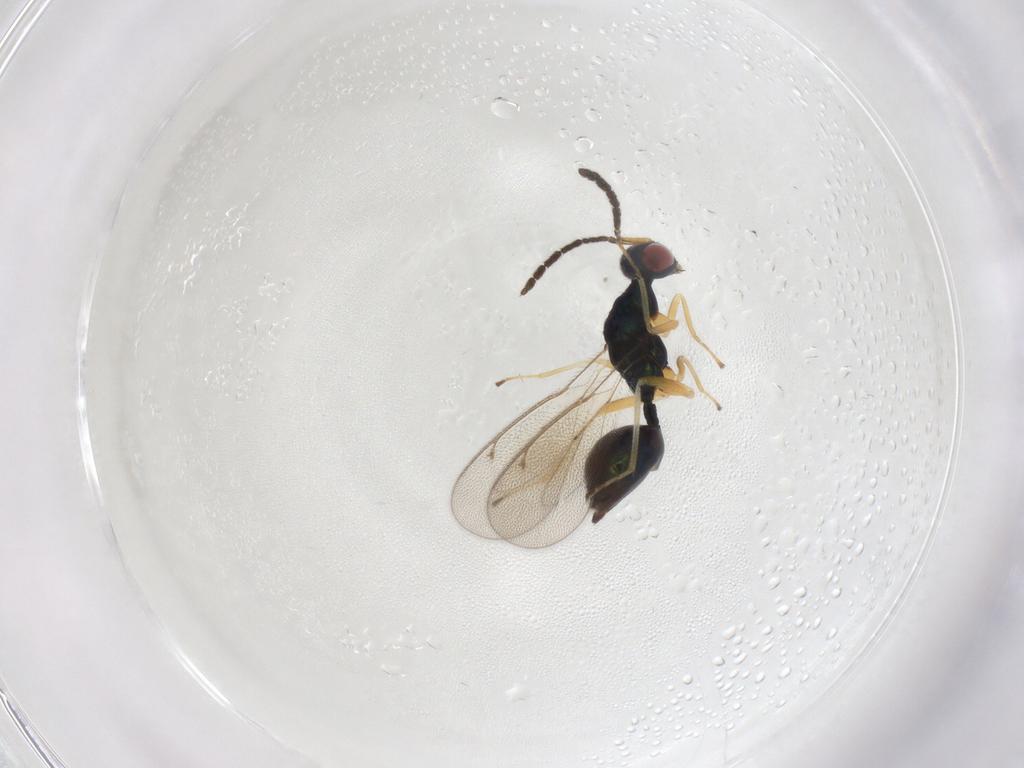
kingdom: Animalia
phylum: Arthropoda
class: Insecta
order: Hymenoptera
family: Eulophidae
